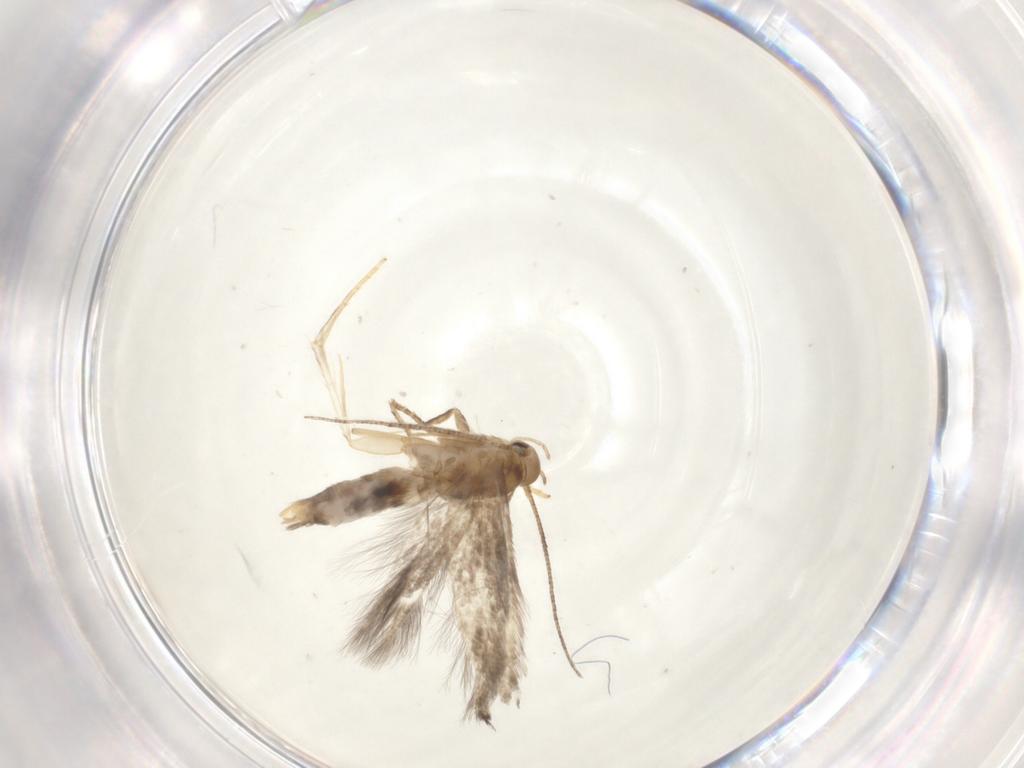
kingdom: Animalia
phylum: Arthropoda
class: Insecta
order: Lepidoptera
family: Elachistidae
